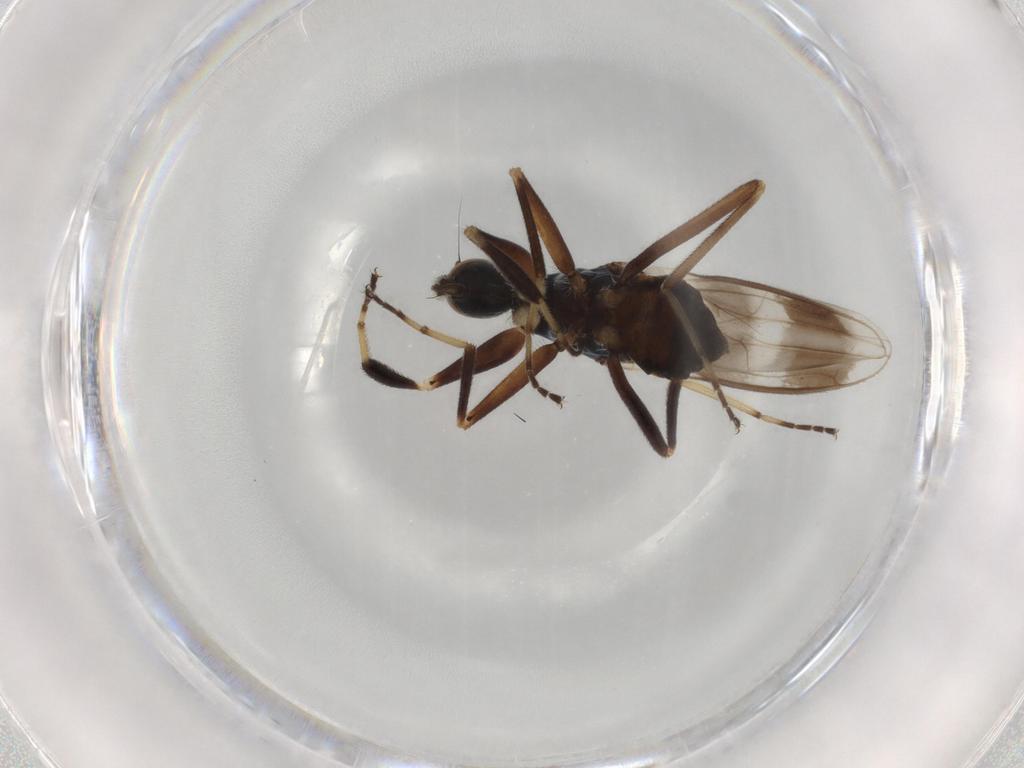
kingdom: Animalia
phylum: Arthropoda
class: Insecta
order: Diptera
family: Hybotidae
